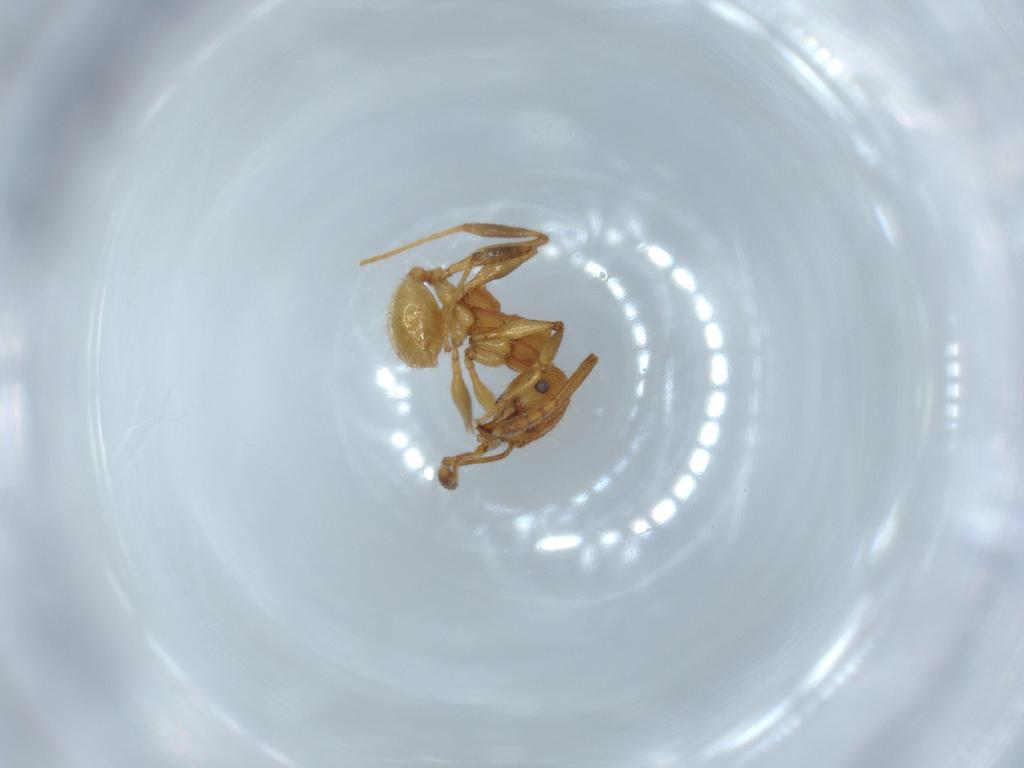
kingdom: Animalia
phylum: Arthropoda
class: Insecta
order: Hymenoptera
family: Formicidae
